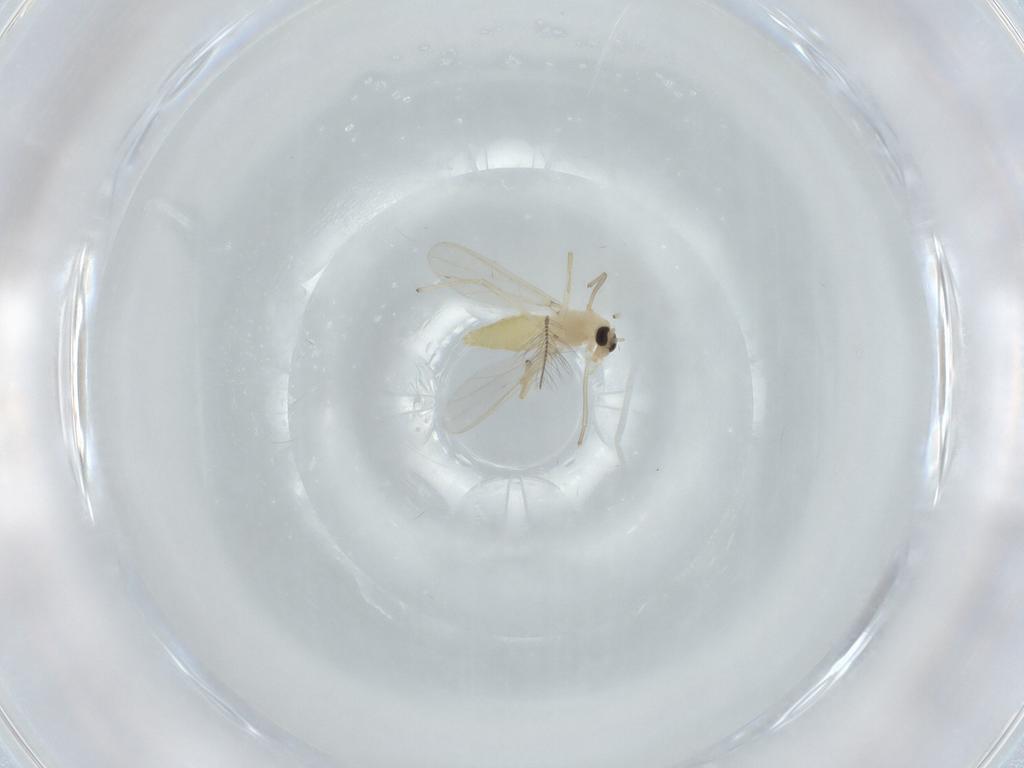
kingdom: Animalia
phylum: Arthropoda
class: Insecta
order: Diptera
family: Chironomidae
